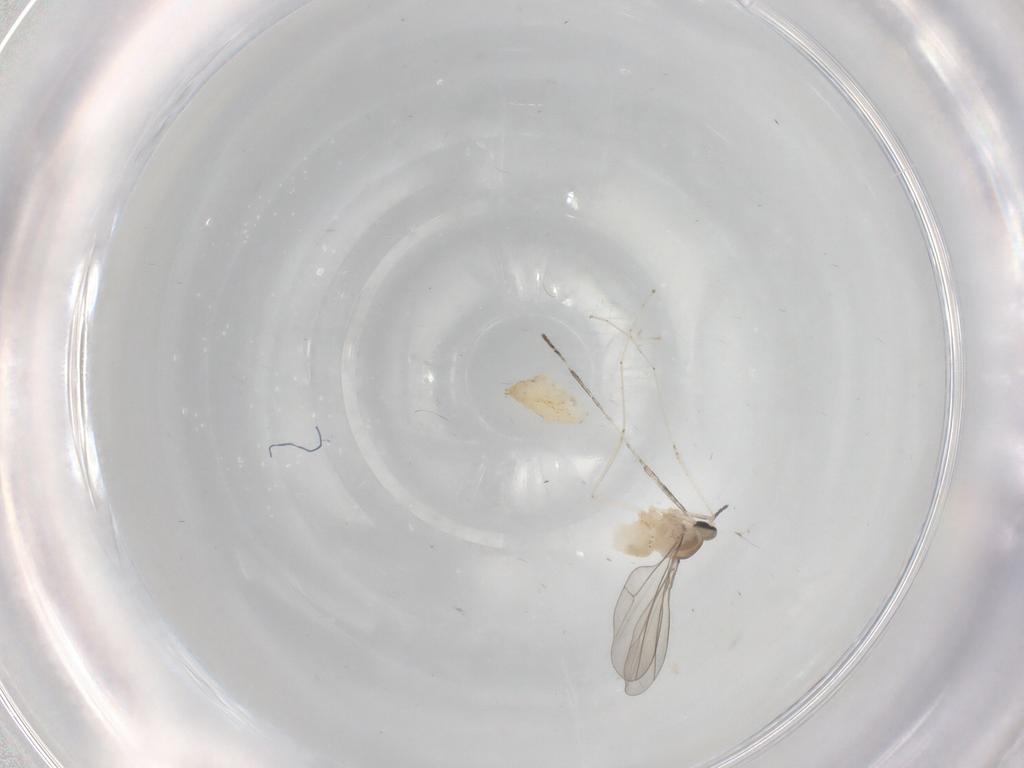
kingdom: Animalia
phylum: Arthropoda
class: Insecta
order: Diptera
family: Cecidomyiidae
